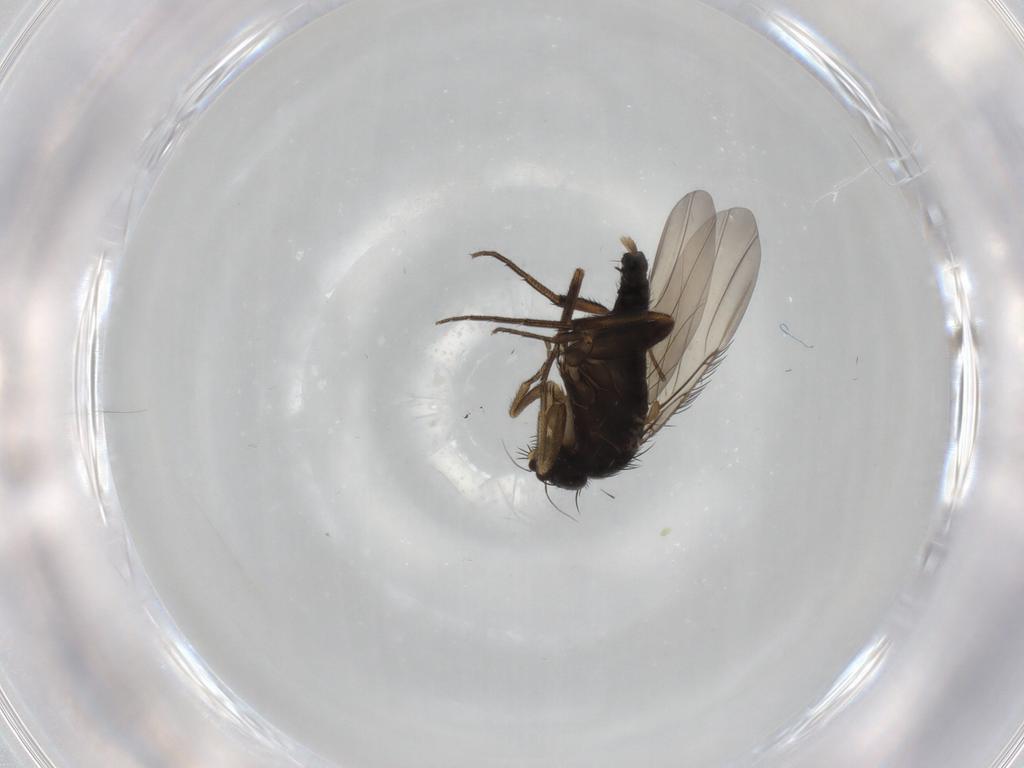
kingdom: Animalia
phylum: Arthropoda
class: Insecta
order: Diptera
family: Phoridae
